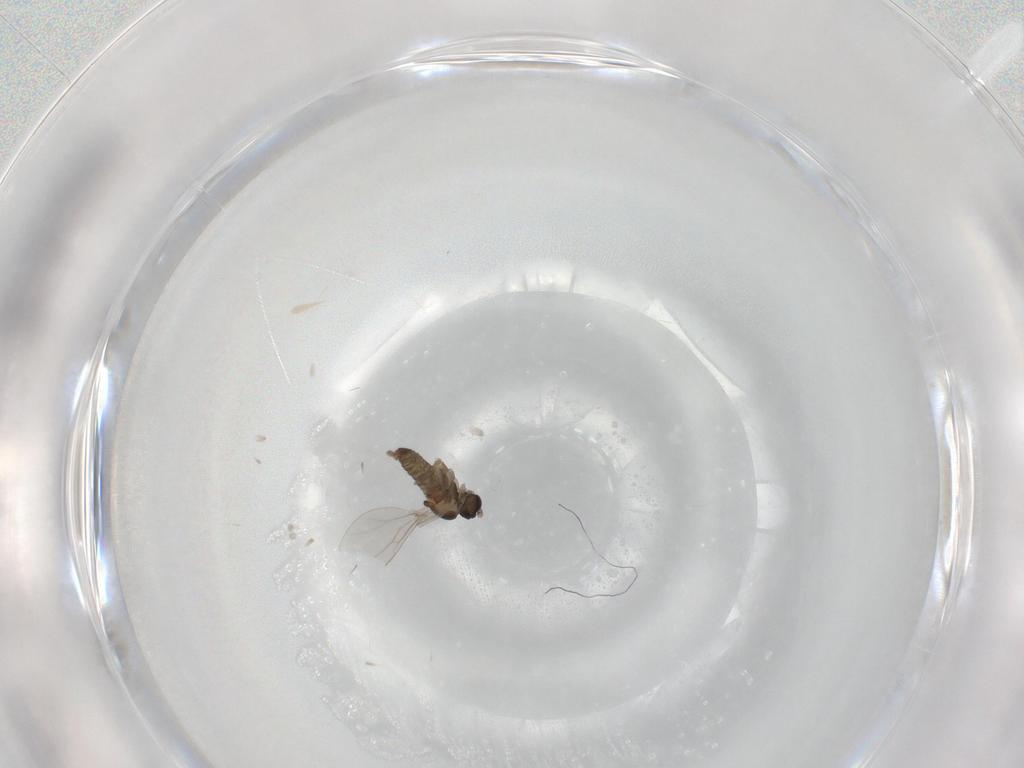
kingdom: Animalia
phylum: Arthropoda
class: Insecta
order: Diptera
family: Cecidomyiidae
